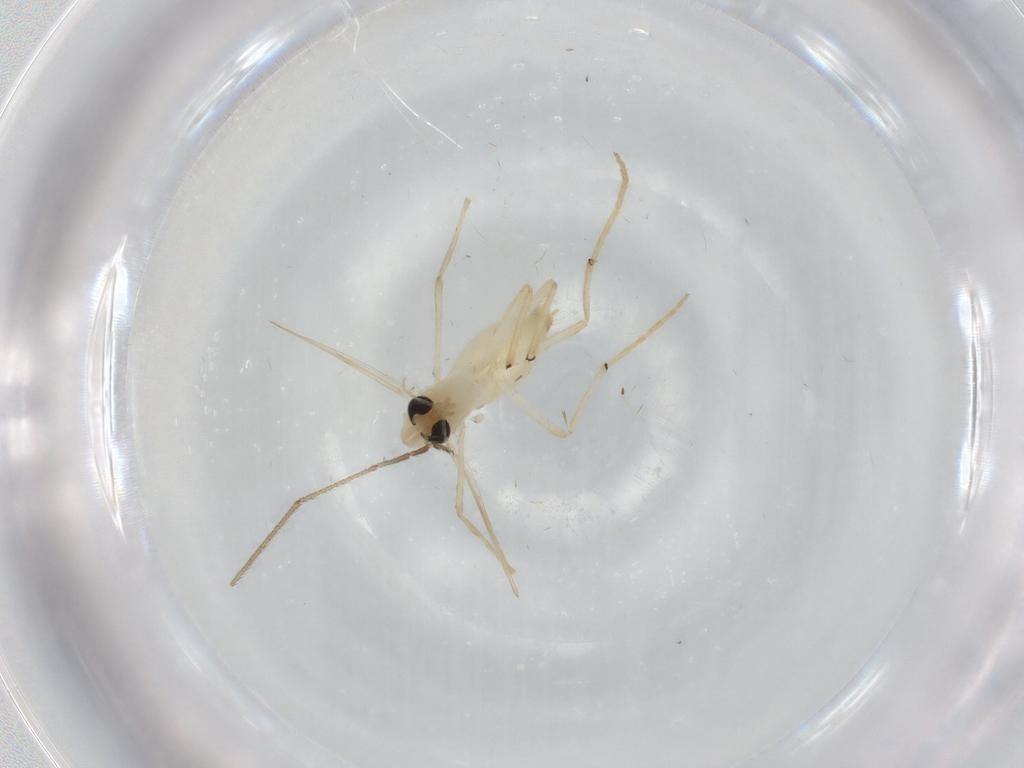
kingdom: Animalia
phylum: Arthropoda
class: Insecta
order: Diptera
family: Chironomidae
